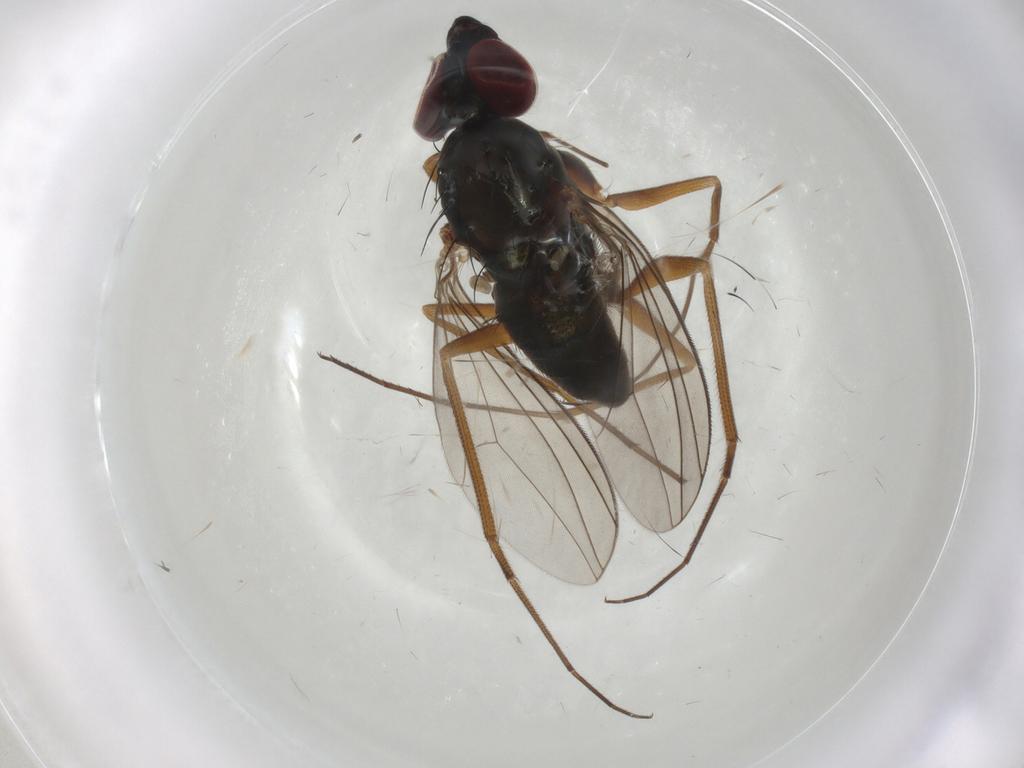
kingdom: Animalia
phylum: Arthropoda
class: Insecta
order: Diptera
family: Dolichopodidae
